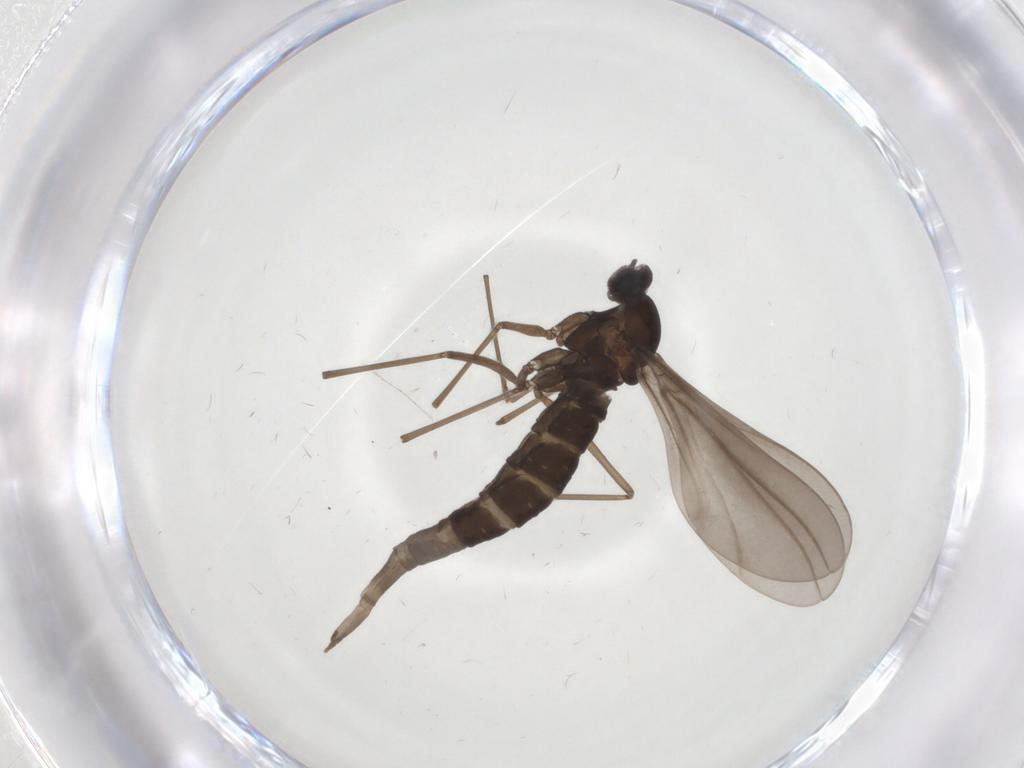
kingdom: Animalia
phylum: Arthropoda
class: Insecta
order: Diptera
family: Cecidomyiidae
